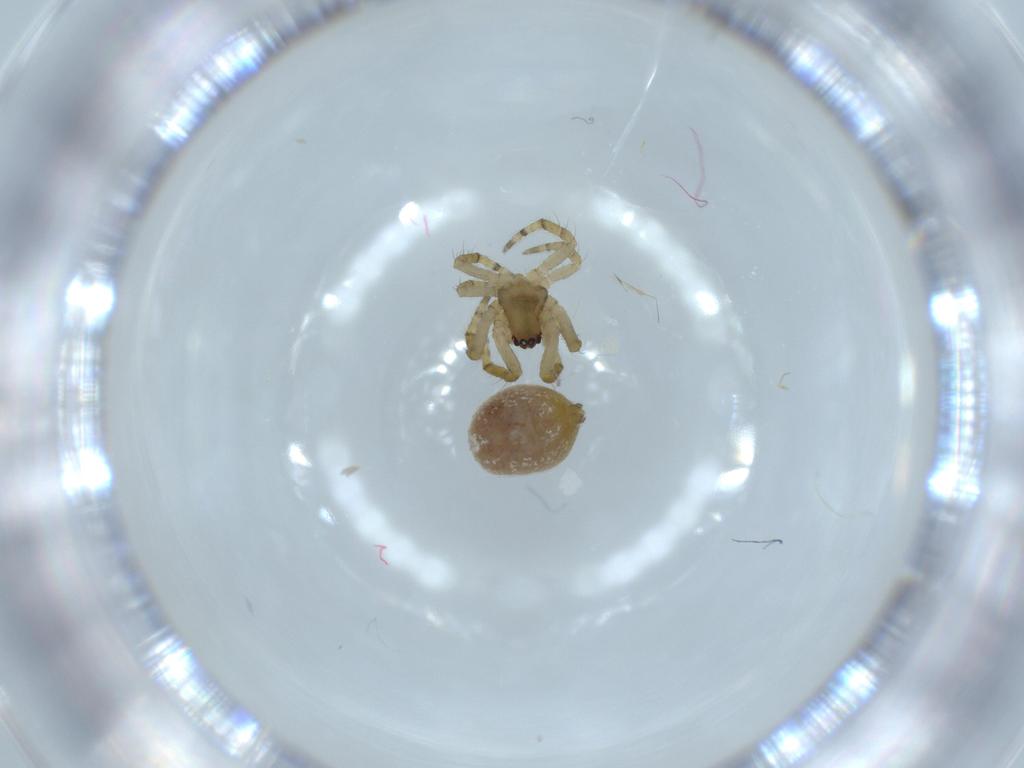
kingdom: Animalia
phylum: Arthropoda
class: Arachnida
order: Araneae
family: Araneidae
